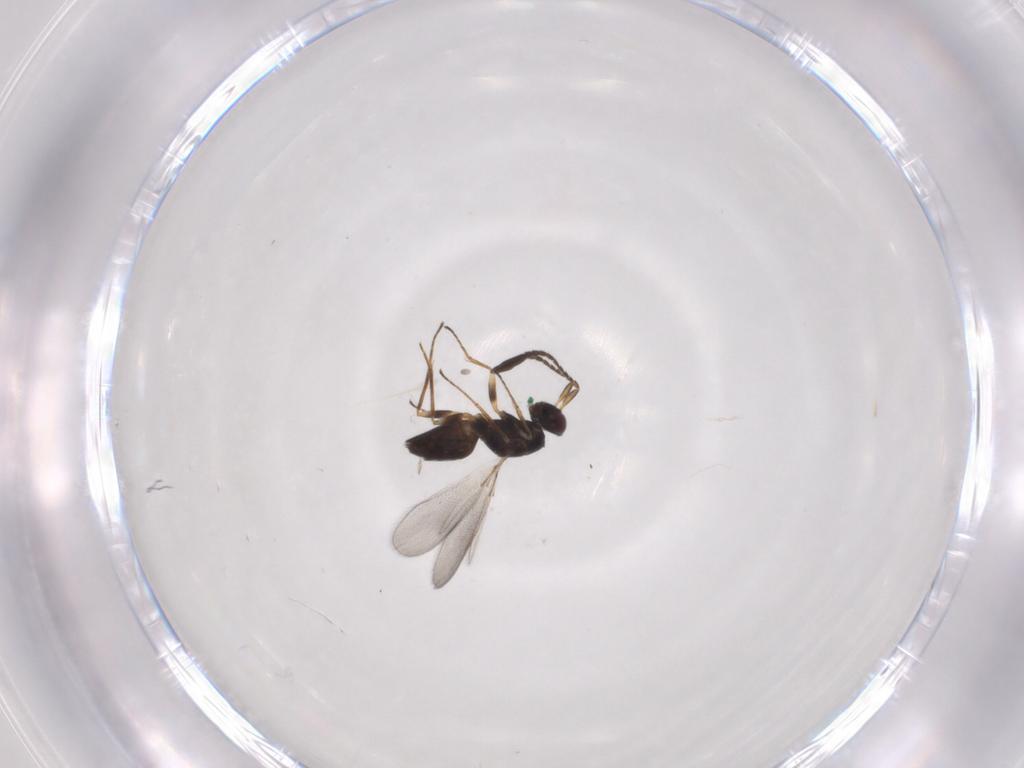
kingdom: Animalia
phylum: Arthropoda
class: Insecta
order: Hymenoptera
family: Mymaridae
